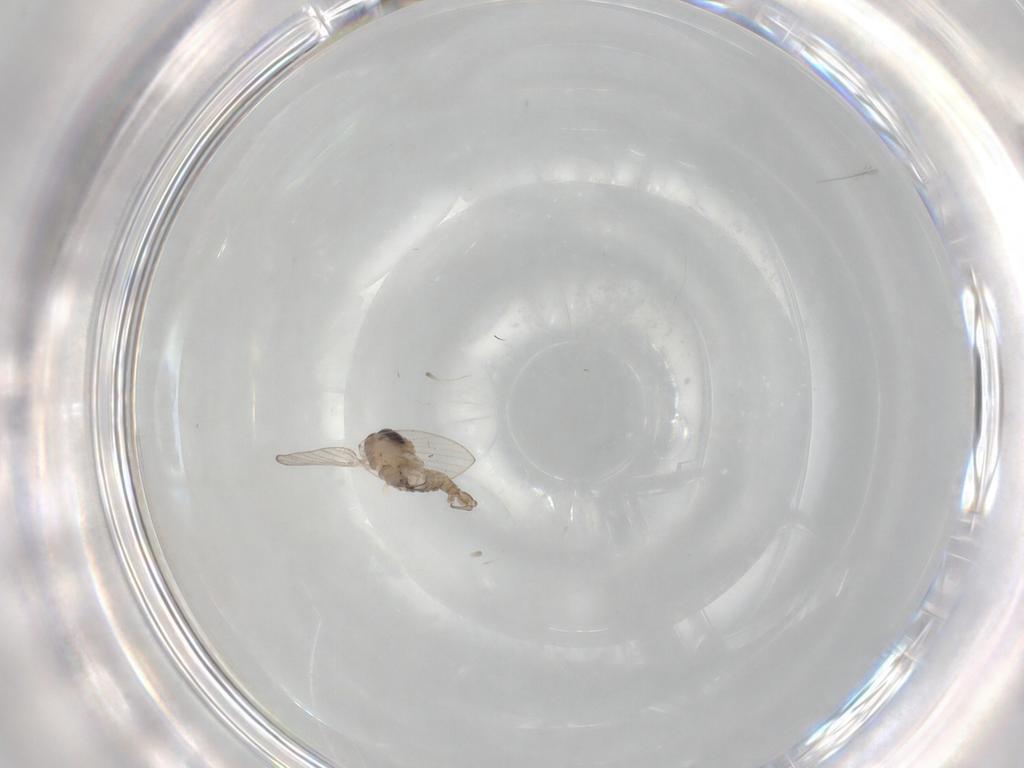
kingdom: Animalia
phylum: Arthropoda
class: Insecta
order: Diptera
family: Psychodidae
